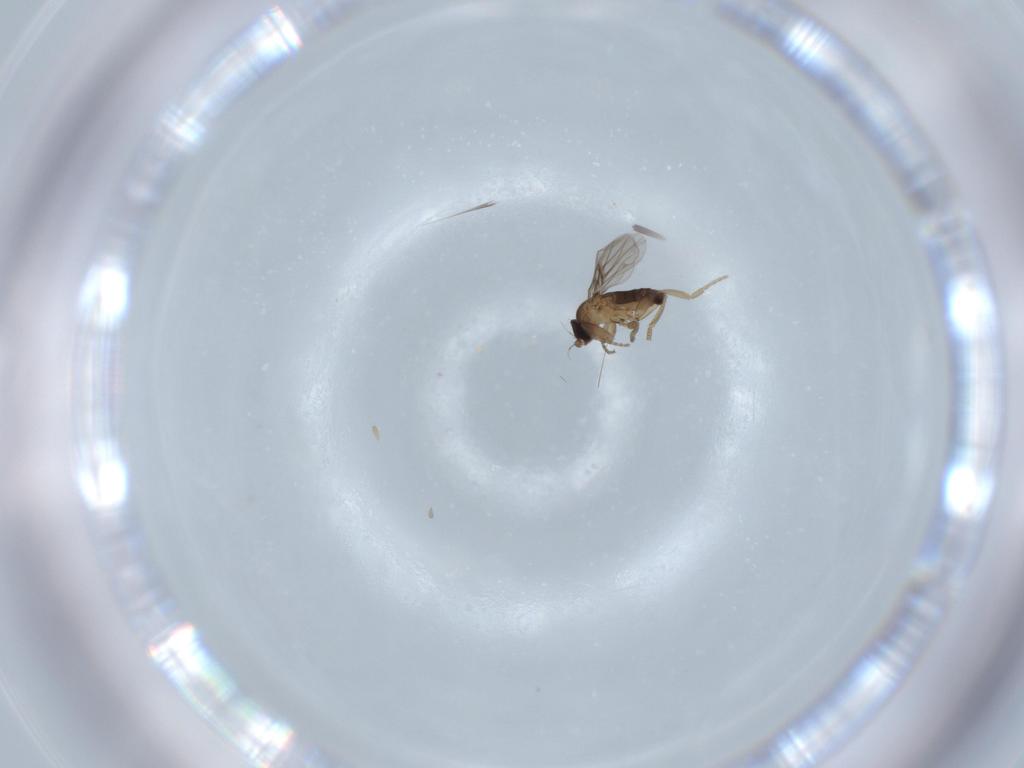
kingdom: Animalia
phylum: Arthropoda
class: Insecta
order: Diptera
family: Phoridae
